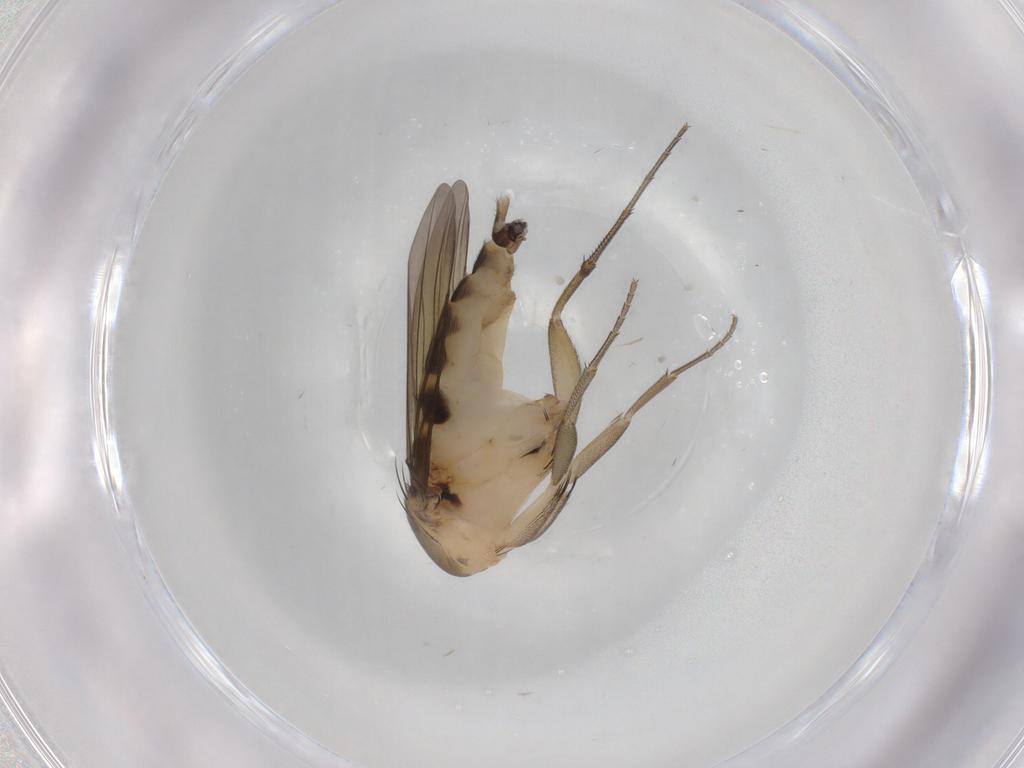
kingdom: Animalia
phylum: Arthropoda
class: Insecta
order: Diptera
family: Phoridae
